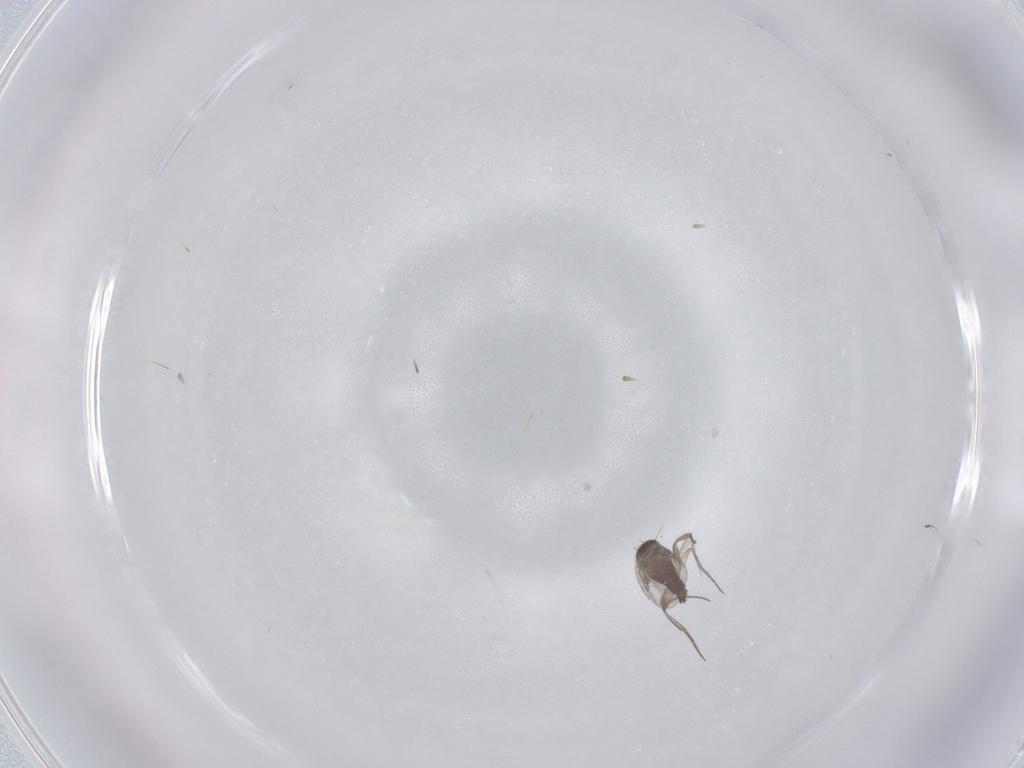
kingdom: Animalia
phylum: Arthropoda
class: Insecta
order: Diptera
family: Phoridae
